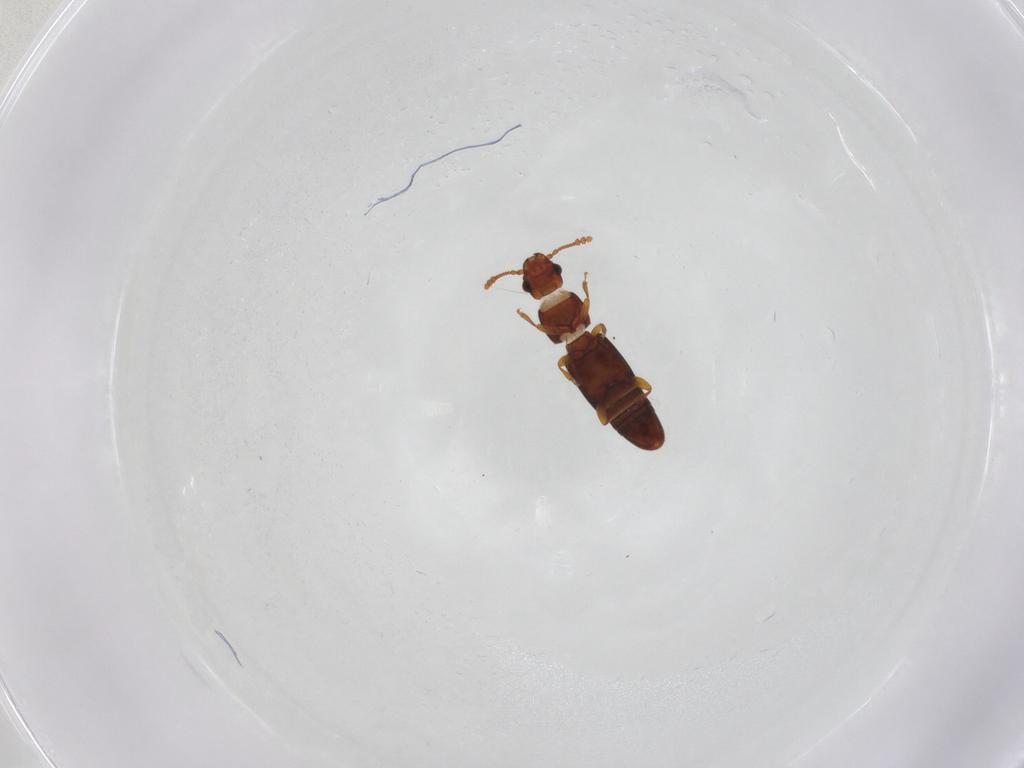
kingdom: Animalia
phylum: Arthropoda
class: Insecta
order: Coleoptera
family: Smicripidae
